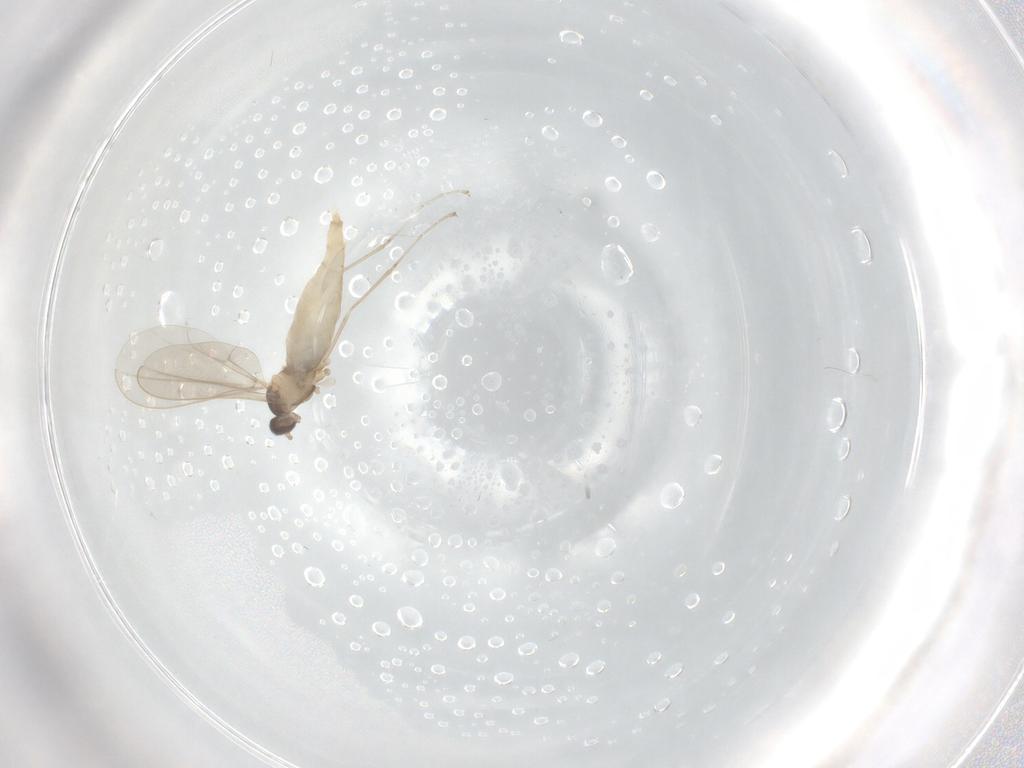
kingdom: Animalia
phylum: Arthropoda
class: Insecta
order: Diptera
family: Cecidomyiidae
